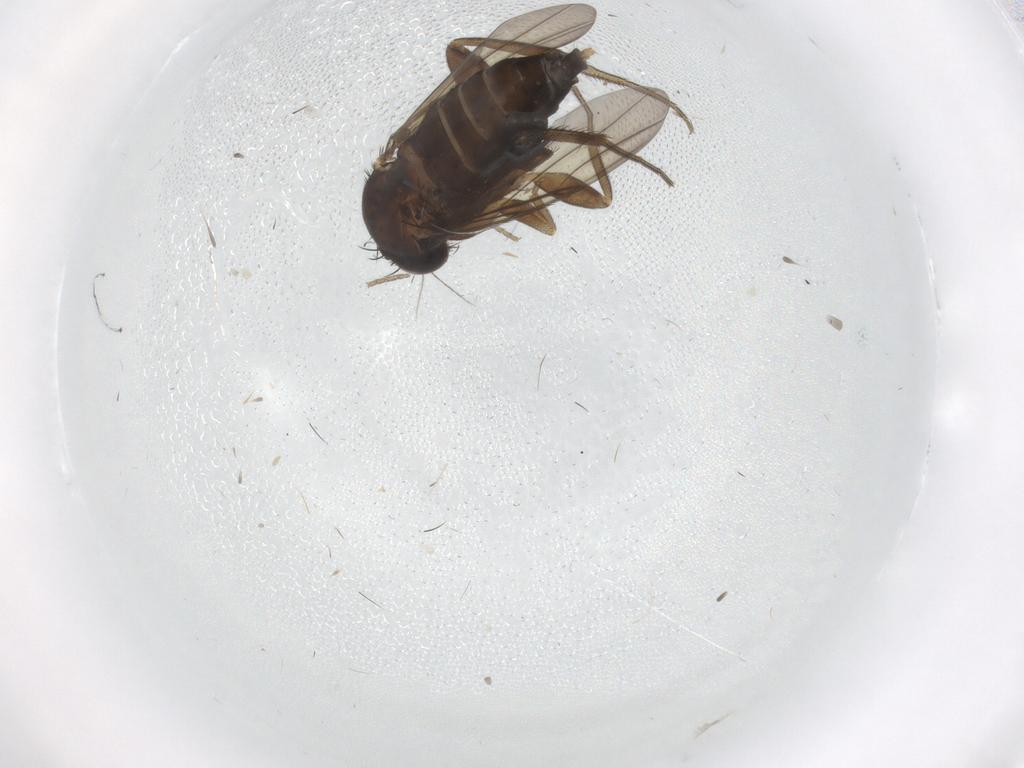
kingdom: Animalia
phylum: Arthropoda
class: Insecta
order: Diptera
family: Phoridae
